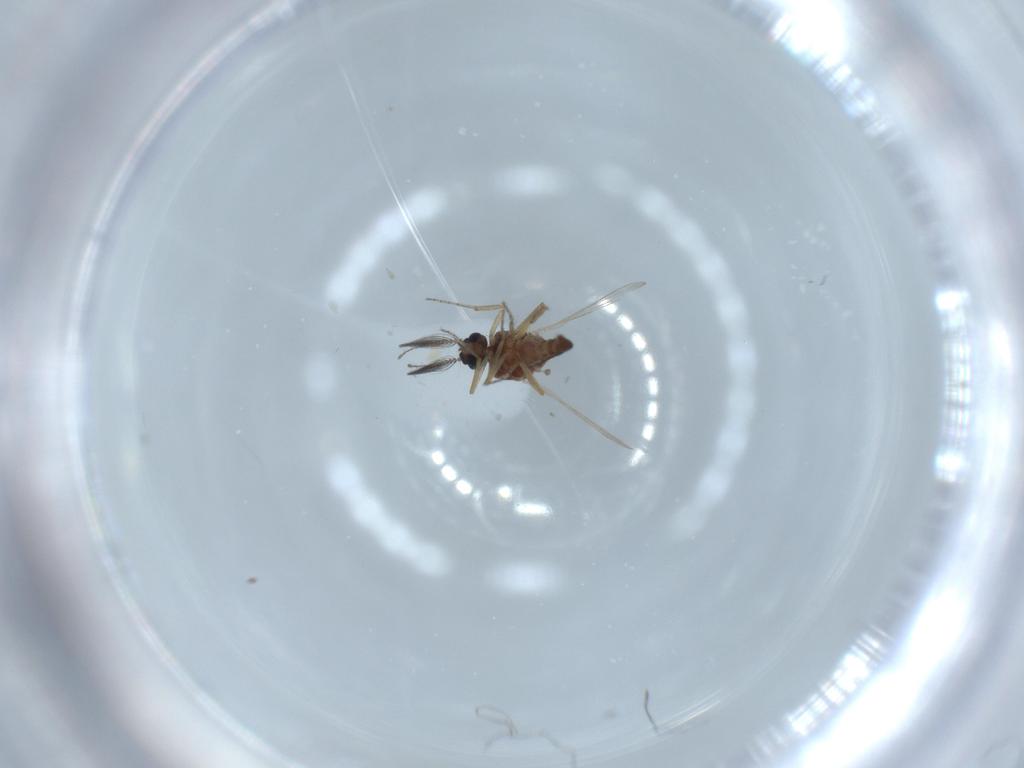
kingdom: Animalia
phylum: Arthropoda
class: Insecta
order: Diptera
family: Ceratopogonidae
